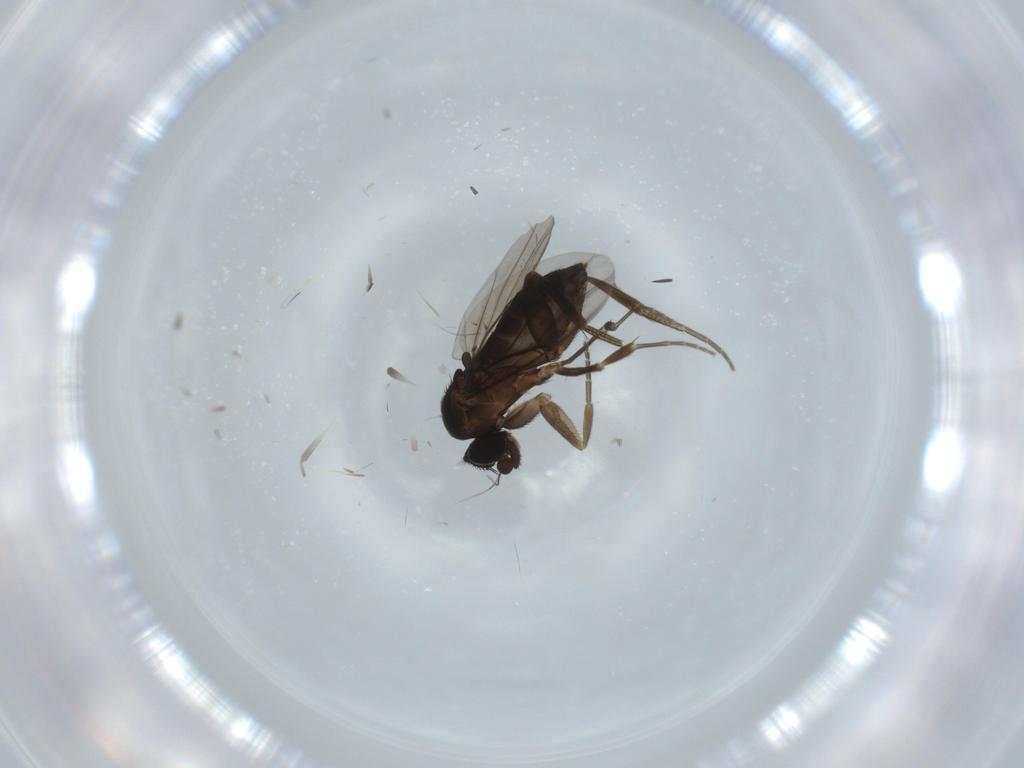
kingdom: Animalia
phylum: Arthropoda
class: Insecta
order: Diptera
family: Phoridae
